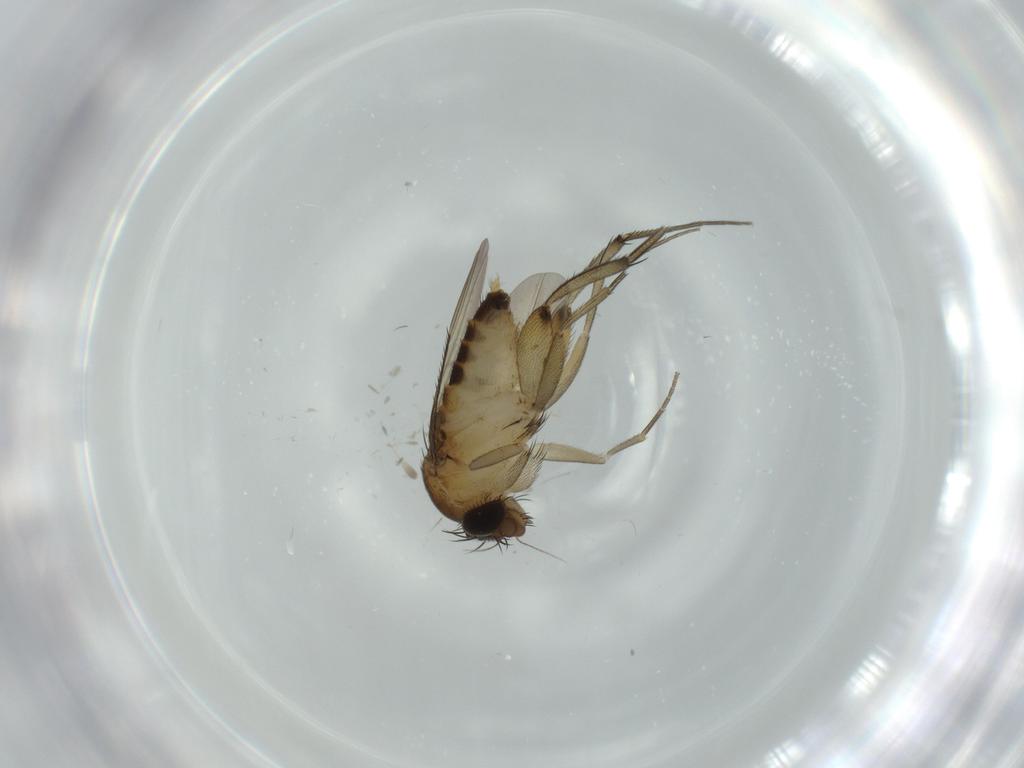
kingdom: Animalia
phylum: Arthropoda
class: Insecta
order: Diptera
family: Phoridae
